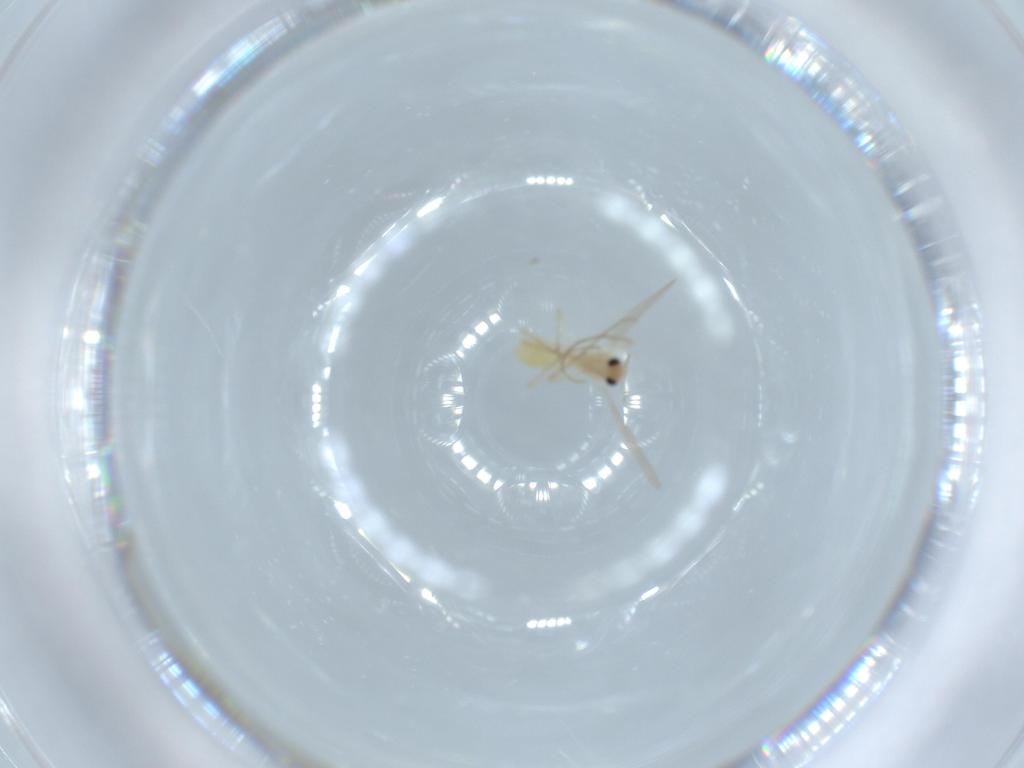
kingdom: Animalia
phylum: Arthropoda
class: Insecta
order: Diptera
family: Chironomidae
